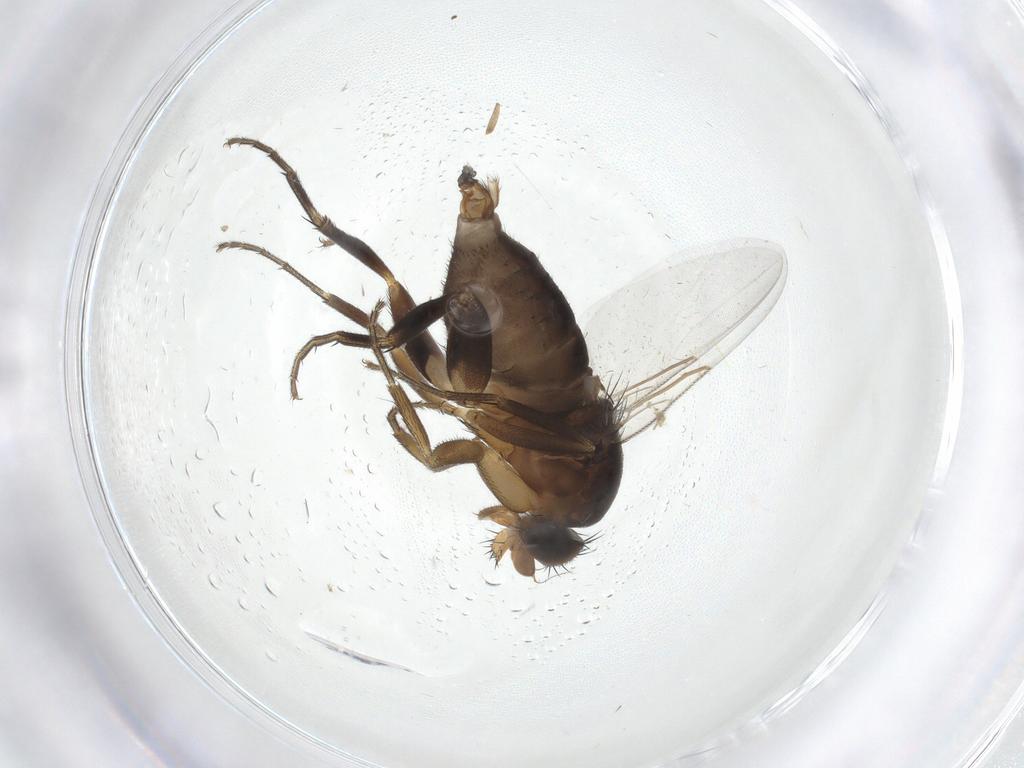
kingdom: Animalia
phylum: Arthropoda
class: Insecta
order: Diptera
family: Phoridae
